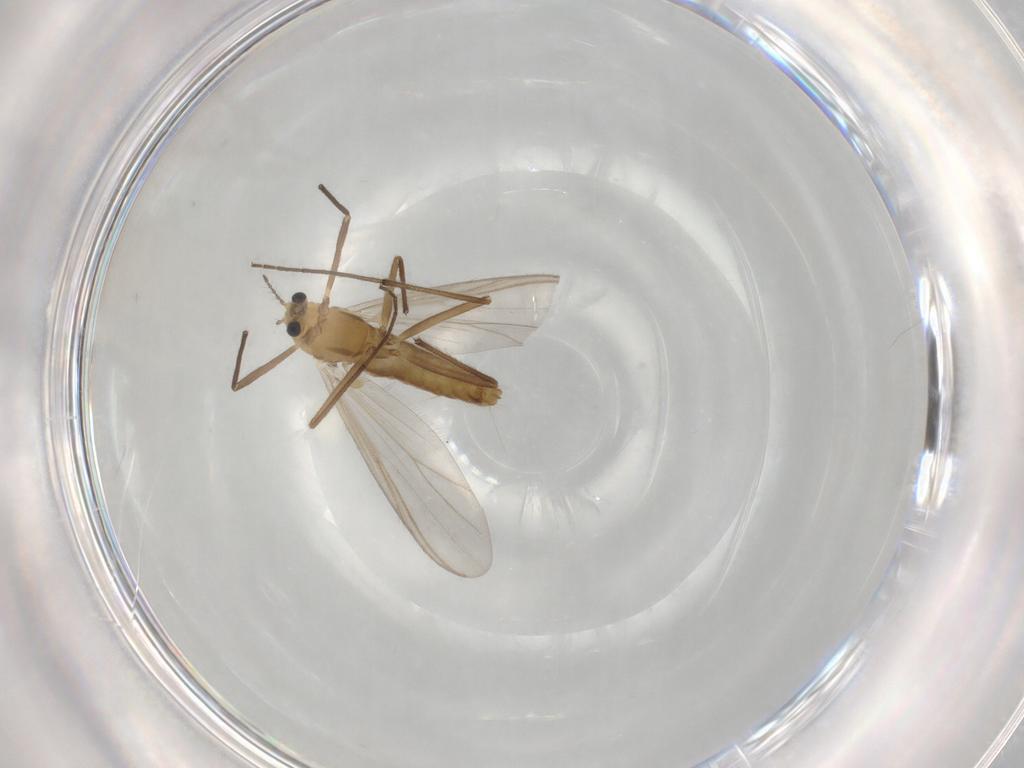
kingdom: Animalia
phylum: Arthropoda
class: Insecta
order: Diptera
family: Chironomidae
